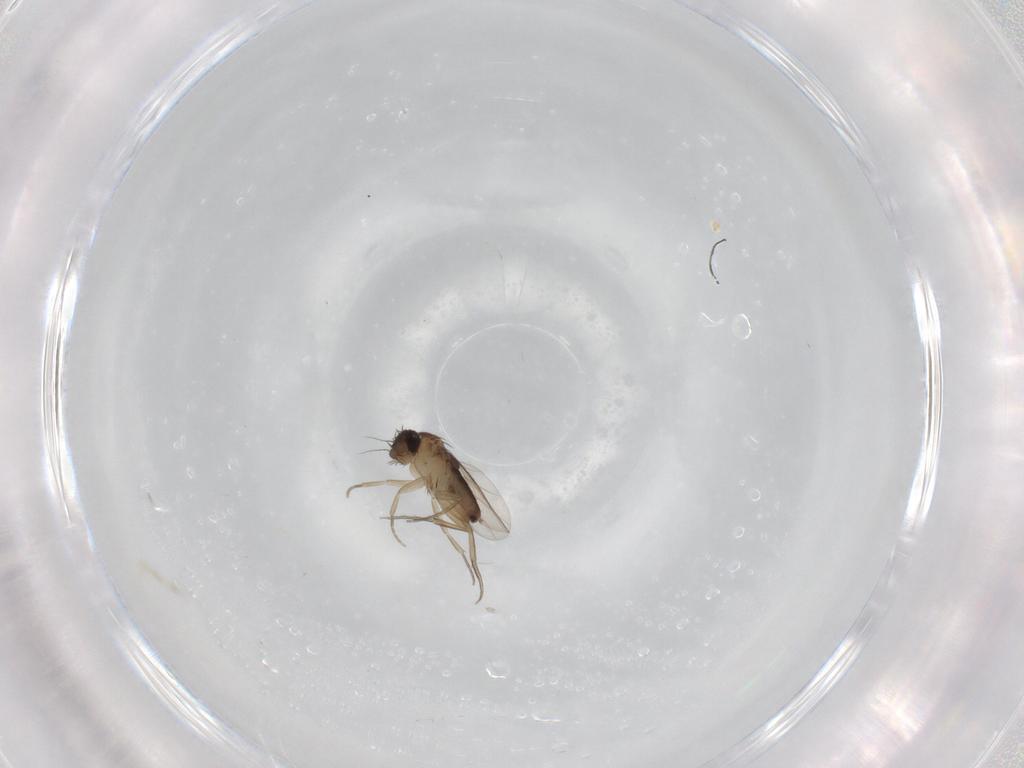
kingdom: Animalia
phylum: Arthropoda
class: Insecta
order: Diptera
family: Phoridae
